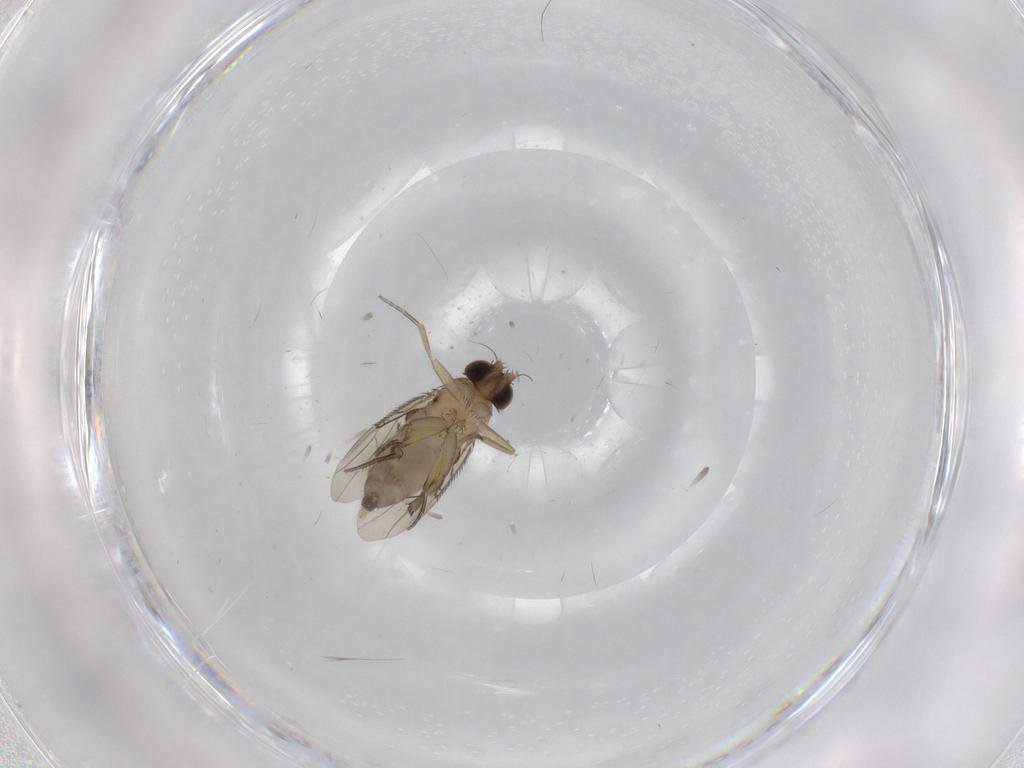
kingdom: Animalia
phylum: Arthropoda
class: Insecta
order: Diptera
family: Phoridae
